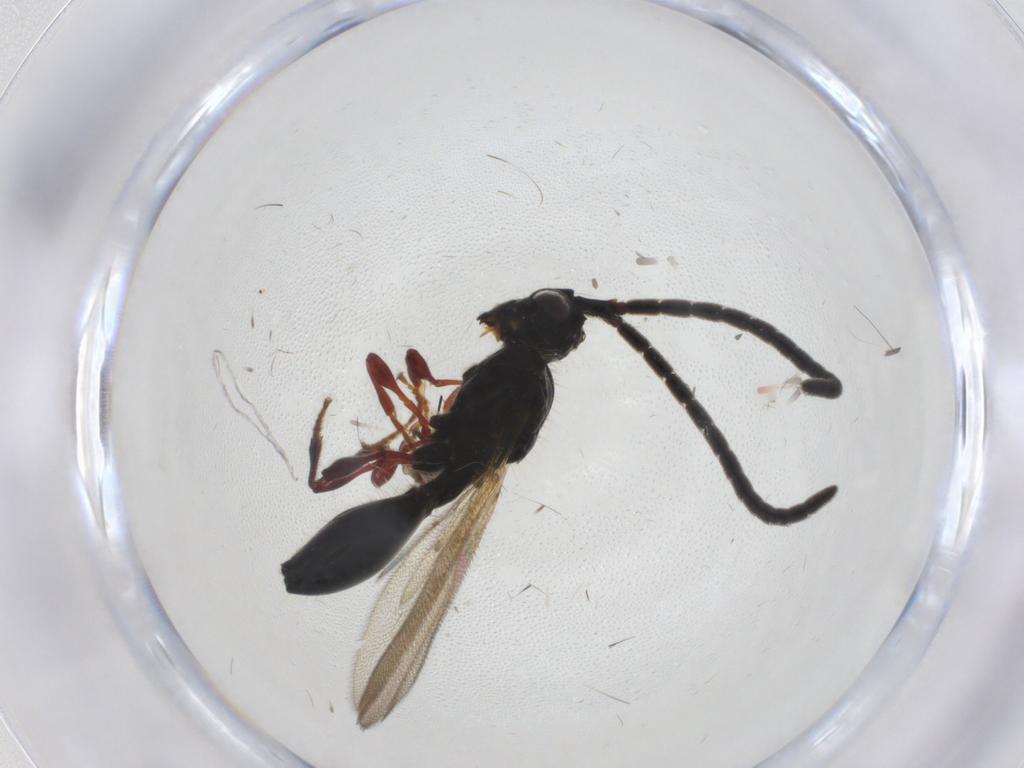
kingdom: Animalia
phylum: Arthropoda
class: Insecta
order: Hymenoptera
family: Diapriidae
